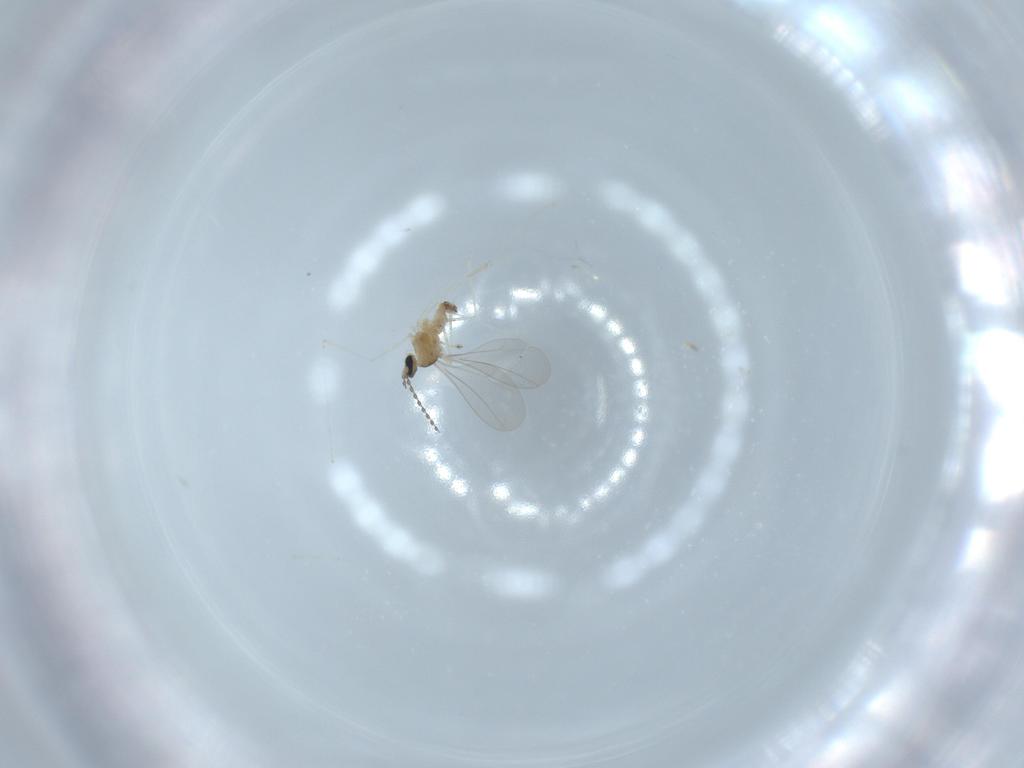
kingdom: Animalia
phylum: Arthropoda
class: Insecta
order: Diptera
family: Cecidomyiidae
